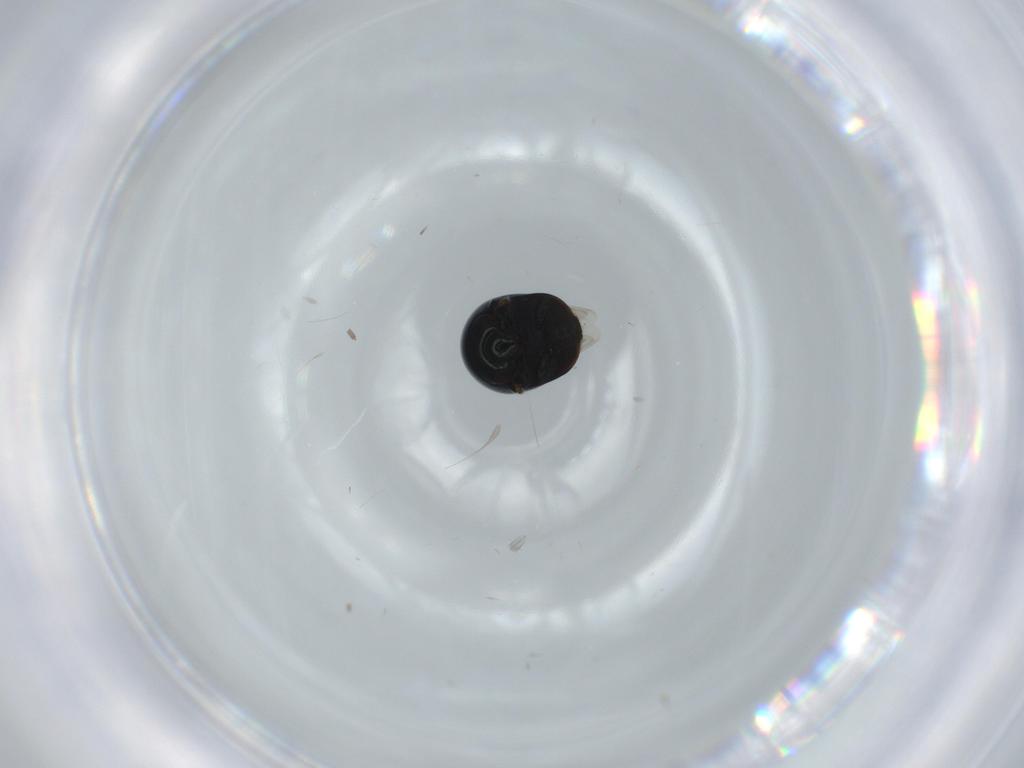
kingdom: Animalia
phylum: Arthropoda
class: Insecta
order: Coleoptera
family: Cybocephalidae
